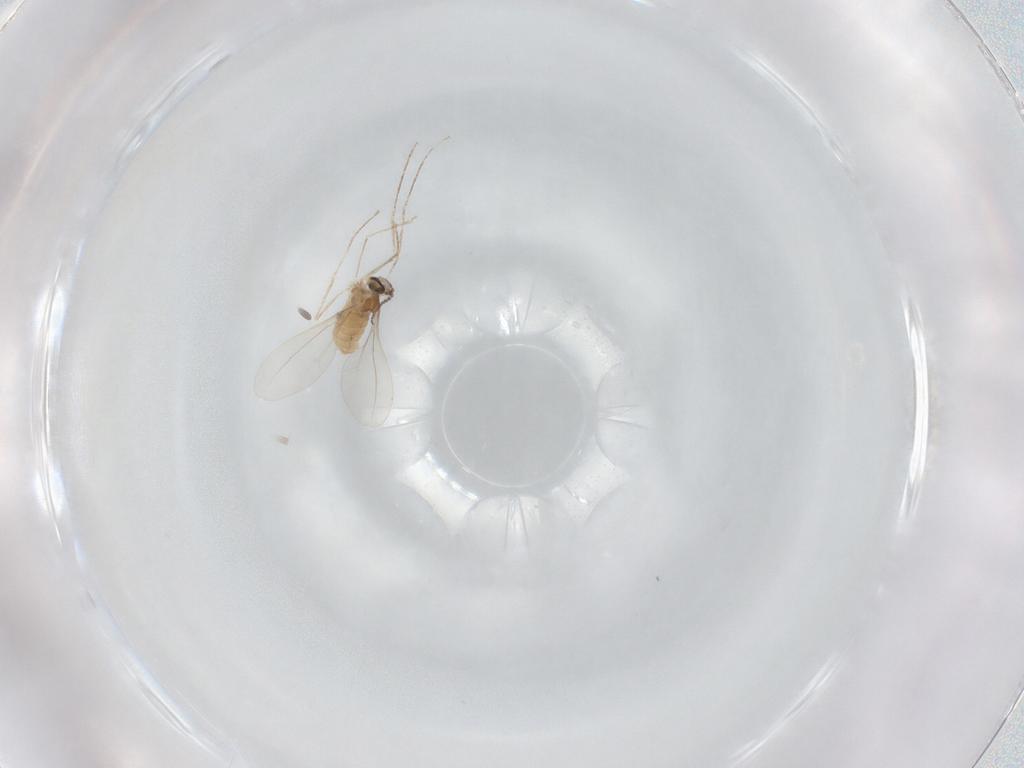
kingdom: Animalia
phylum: Arthropoda
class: Insecta
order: Diptera
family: Cecidomyiidae
